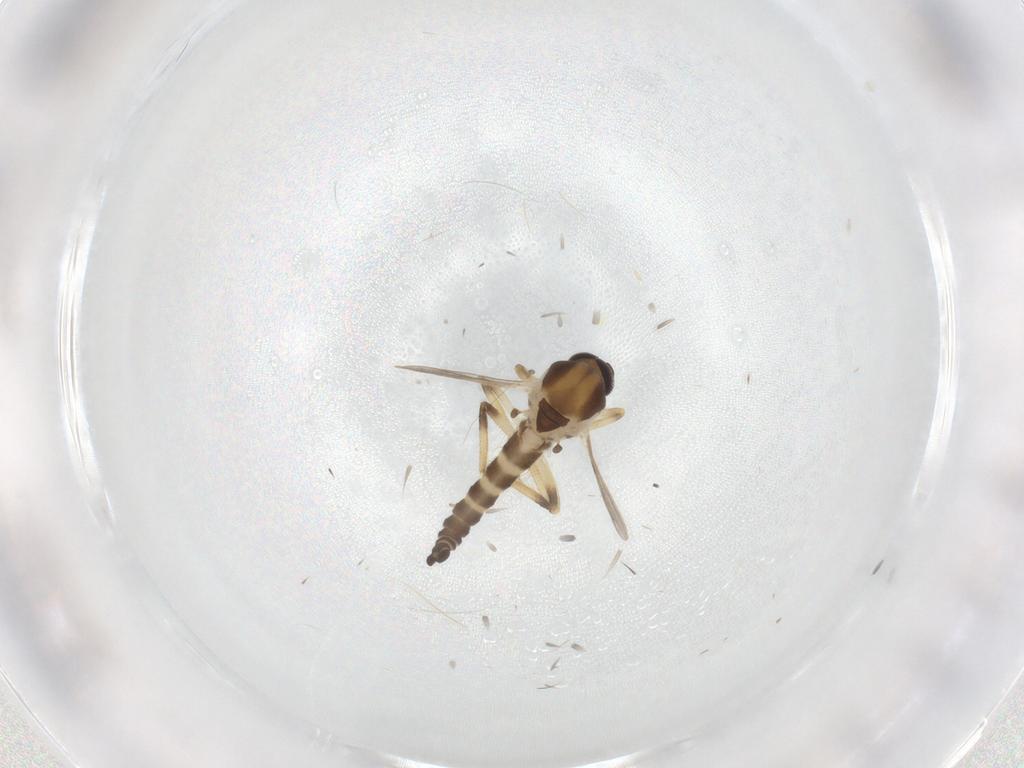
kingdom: Animalia
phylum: Arthropoda
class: Insecta
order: Diptera
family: Ceratopogonidae
